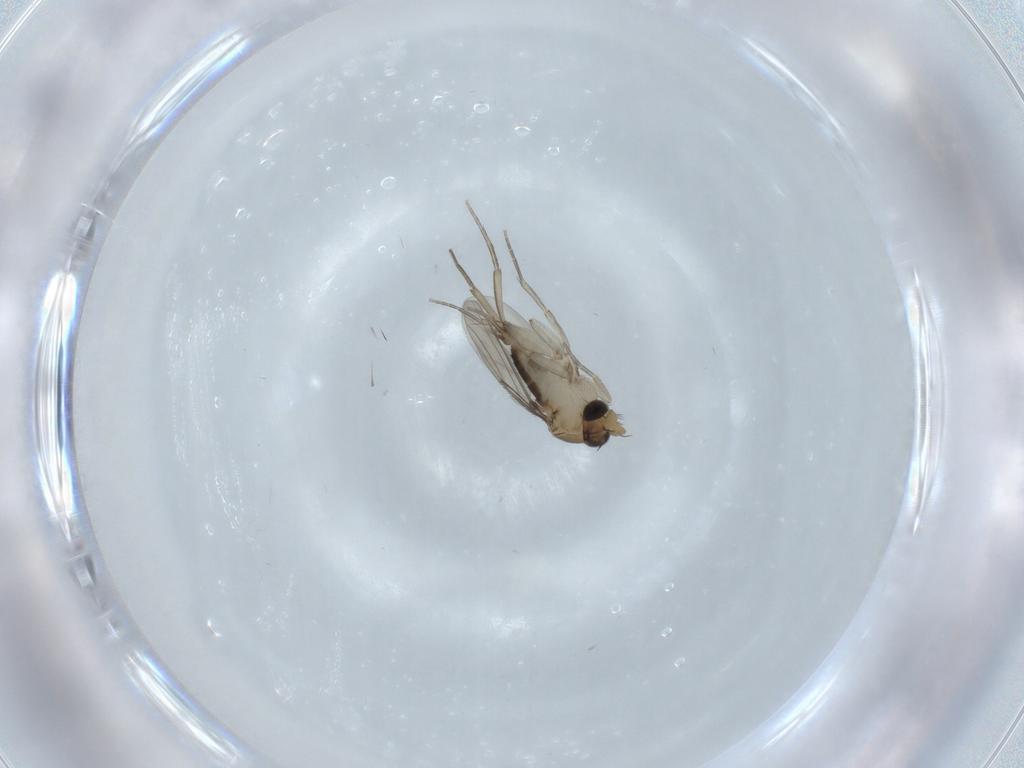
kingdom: Animalia
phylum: Arthropoda
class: Insecta
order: Diptera
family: Phoridae
